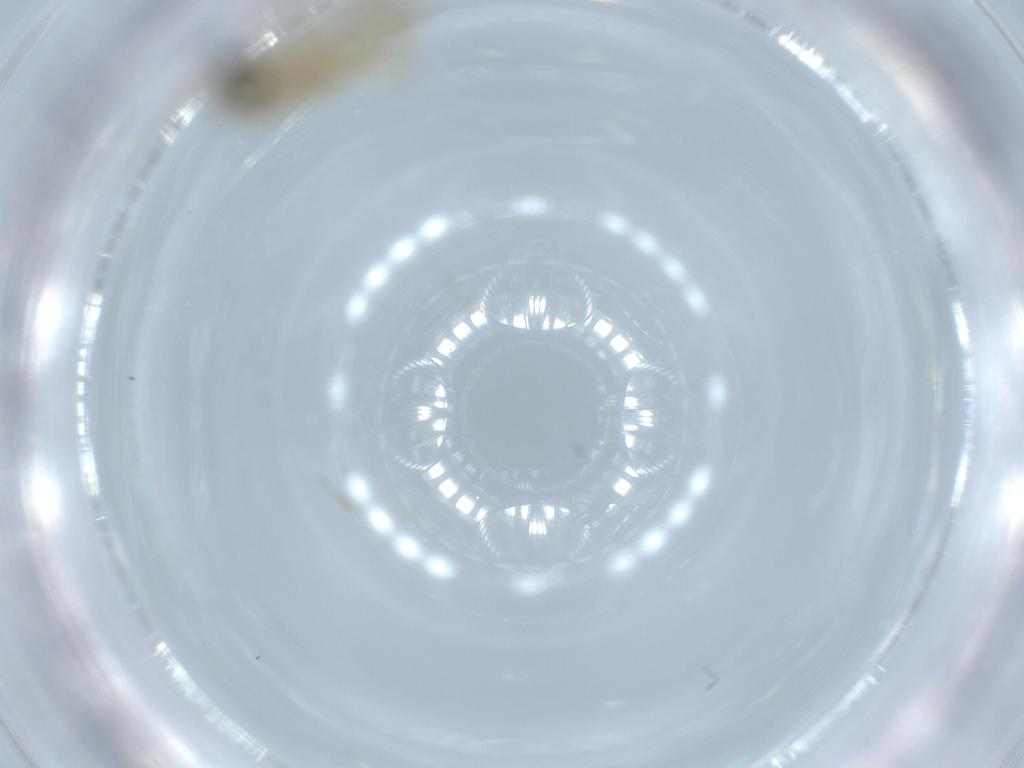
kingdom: Animalia
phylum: Arthropoda
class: Insecta
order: Diptera
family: Chironomidae
